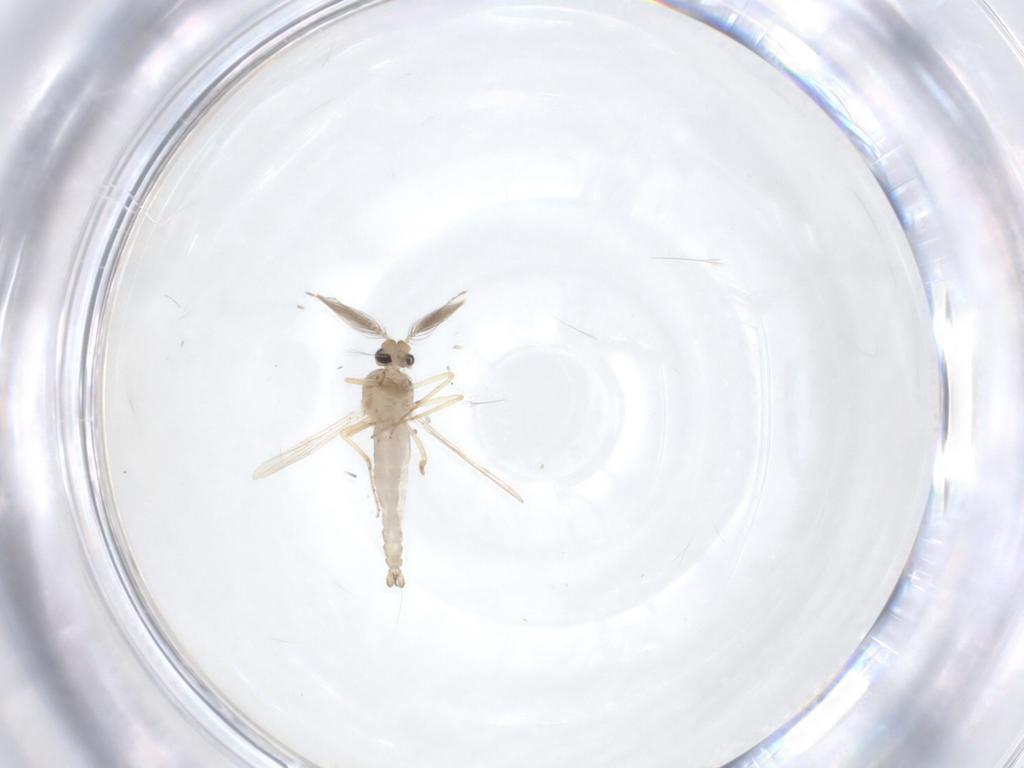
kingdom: Animalia
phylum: Arthropoda
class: Insecta
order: Diptera
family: Ceratopogonidae
